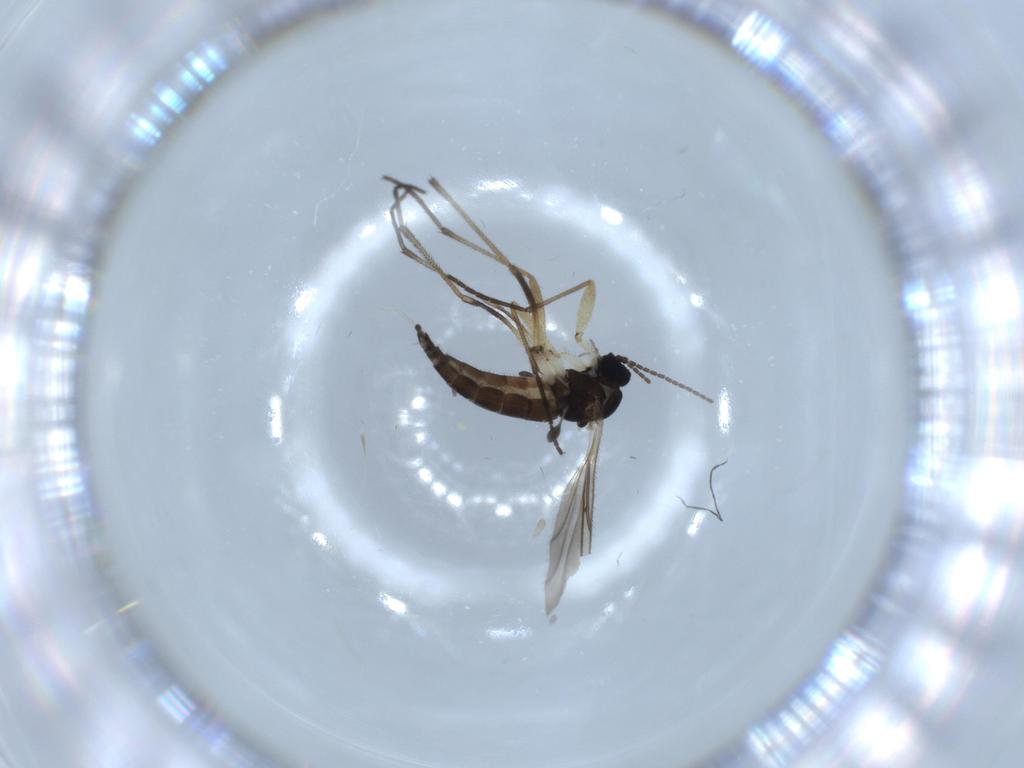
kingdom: Animalia
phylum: Arthropoda
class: Insecta
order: Diptera
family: Sciaridae
